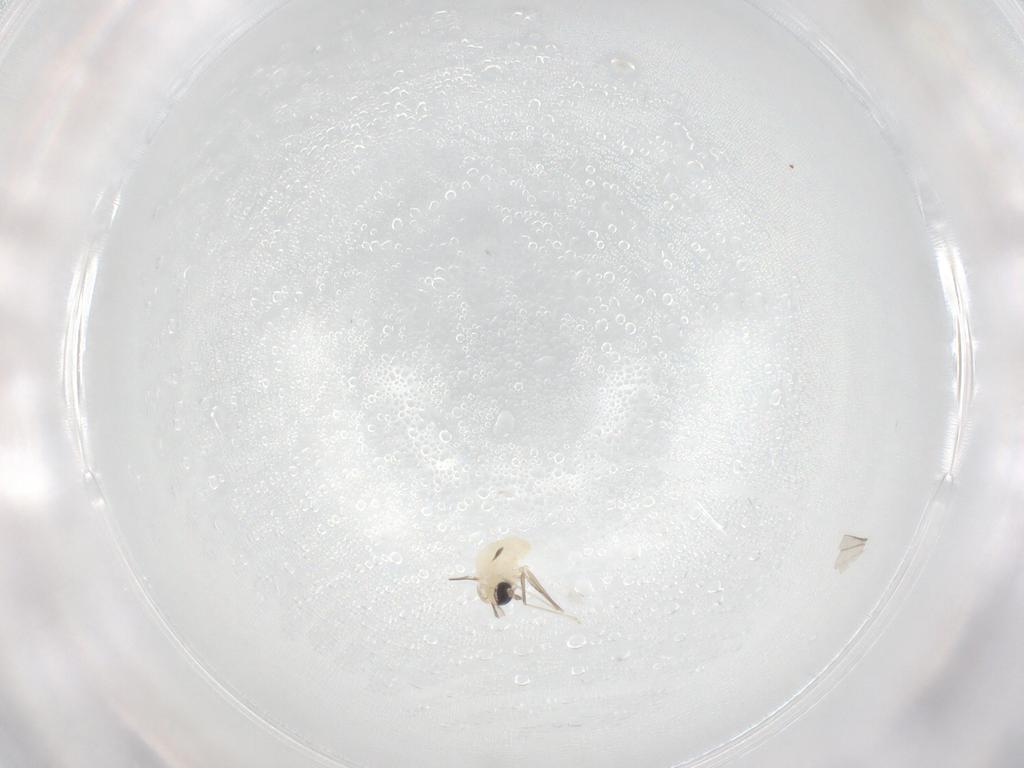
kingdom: Animalia
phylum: Arthropoda
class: Insecta
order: Diptera
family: Cecidomyiidae
